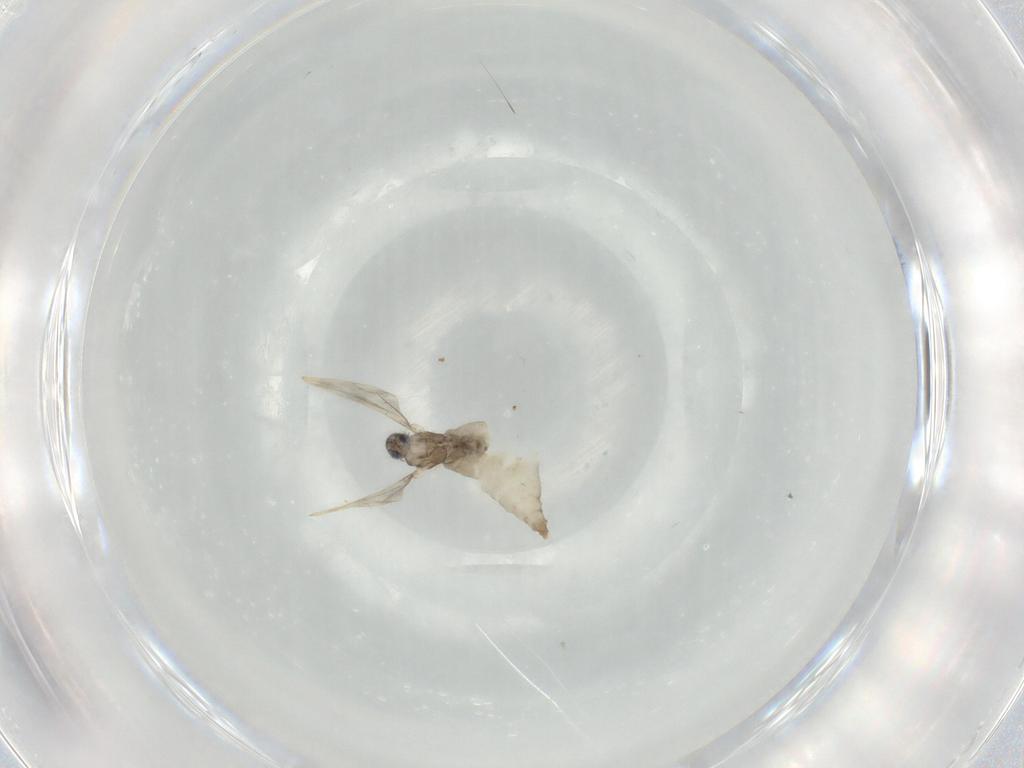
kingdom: Animalia
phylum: Arthropoda
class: Insecta
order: Diptera
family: Cecidomyiidae
